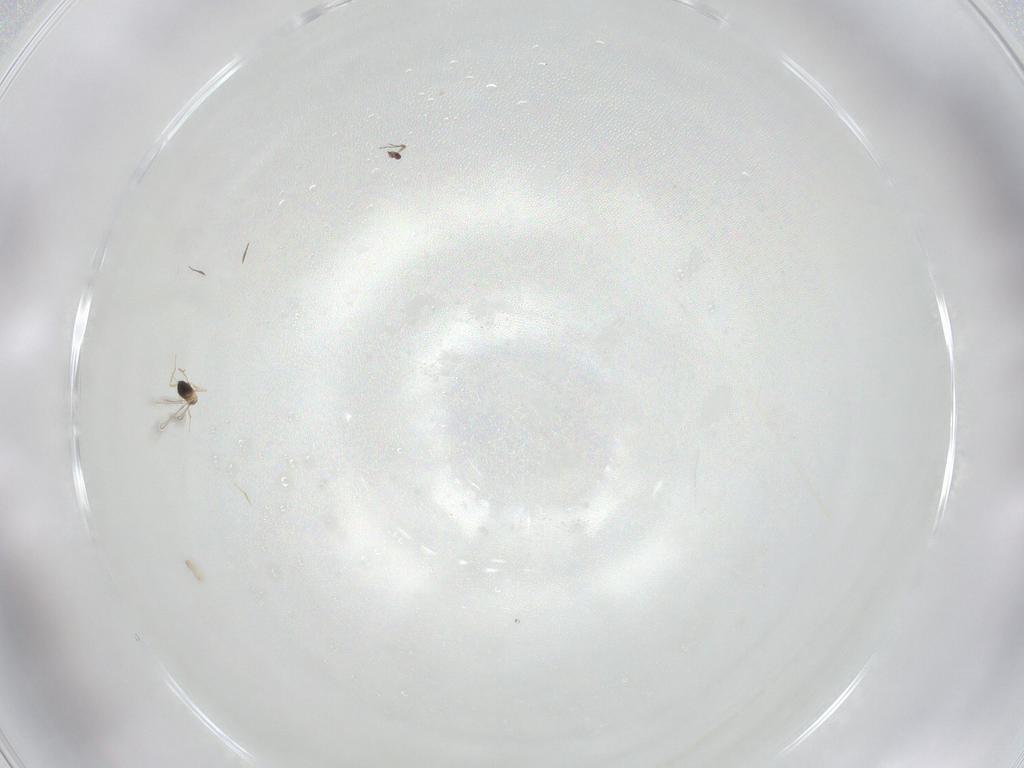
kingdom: Animalia
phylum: Arthropoda
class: Insecta
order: Hymenoptera
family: Mymaridae
